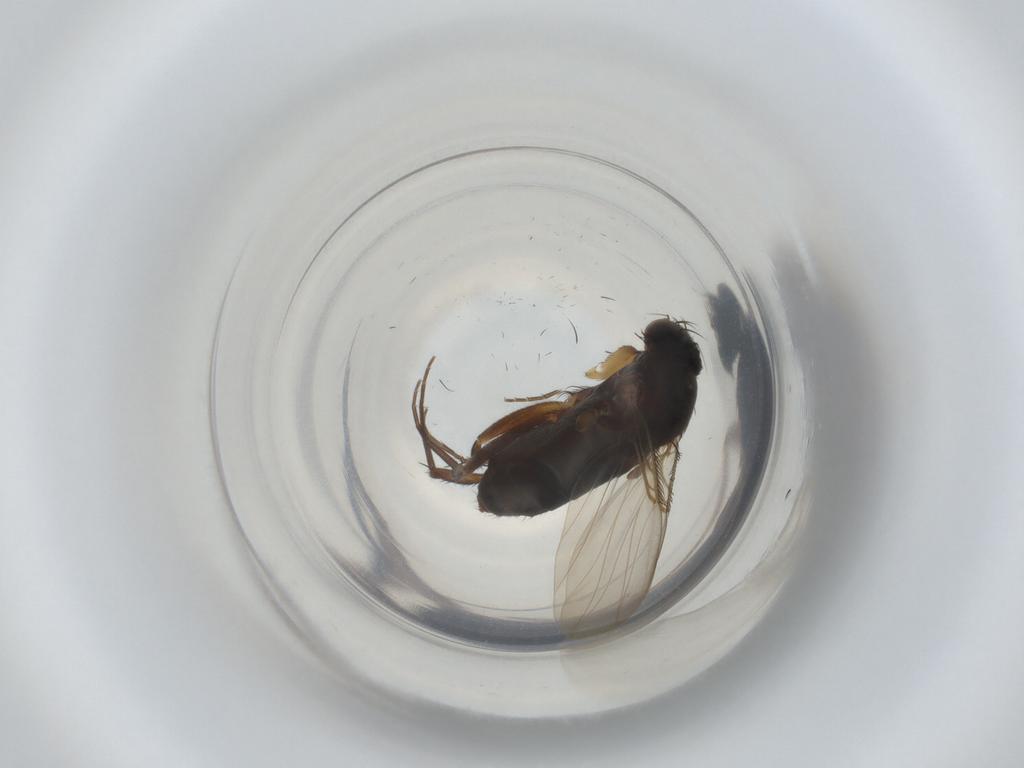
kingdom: Animalia
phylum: Arthropoda
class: Insecta
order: Diptera
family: Phoridae
